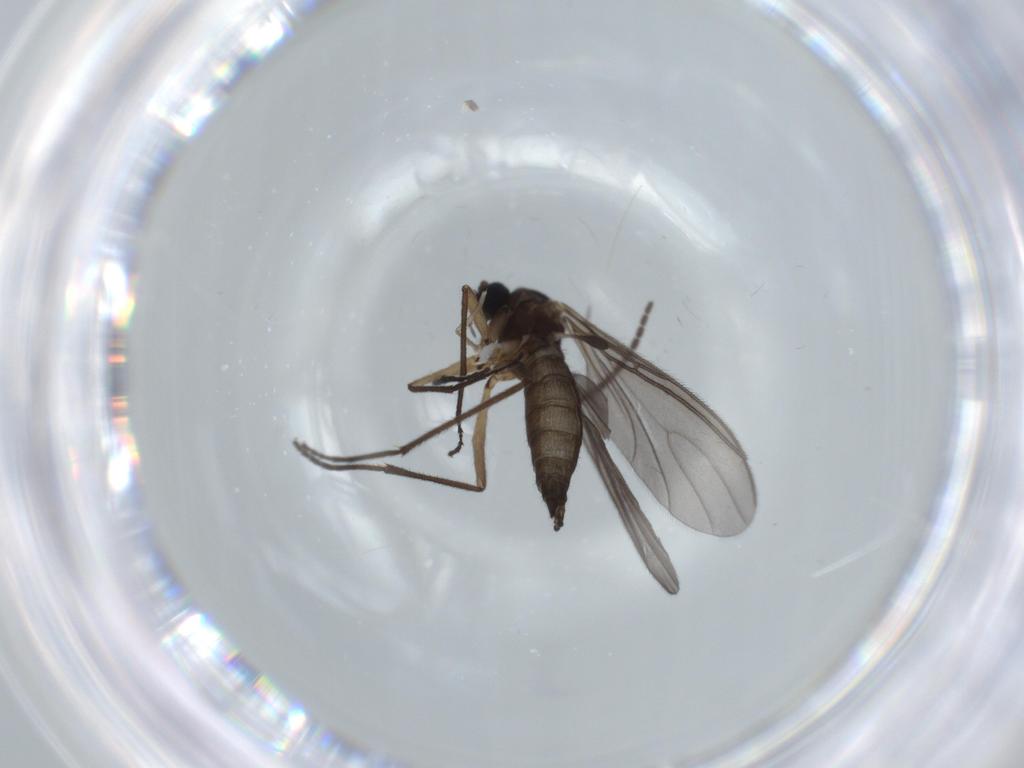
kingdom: Animalia
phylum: Arthropoda
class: Insecta
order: Diptera
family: Sciaridae
